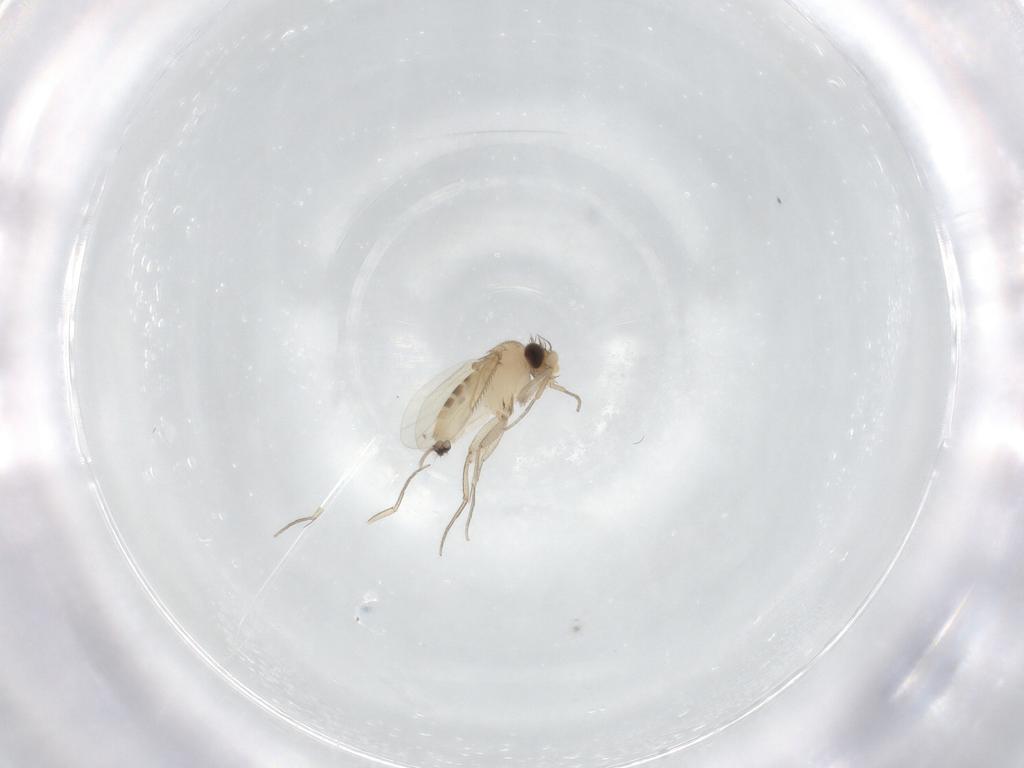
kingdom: Animalia
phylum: Arthropoda
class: Insecta
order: Diptera
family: Phoridae
